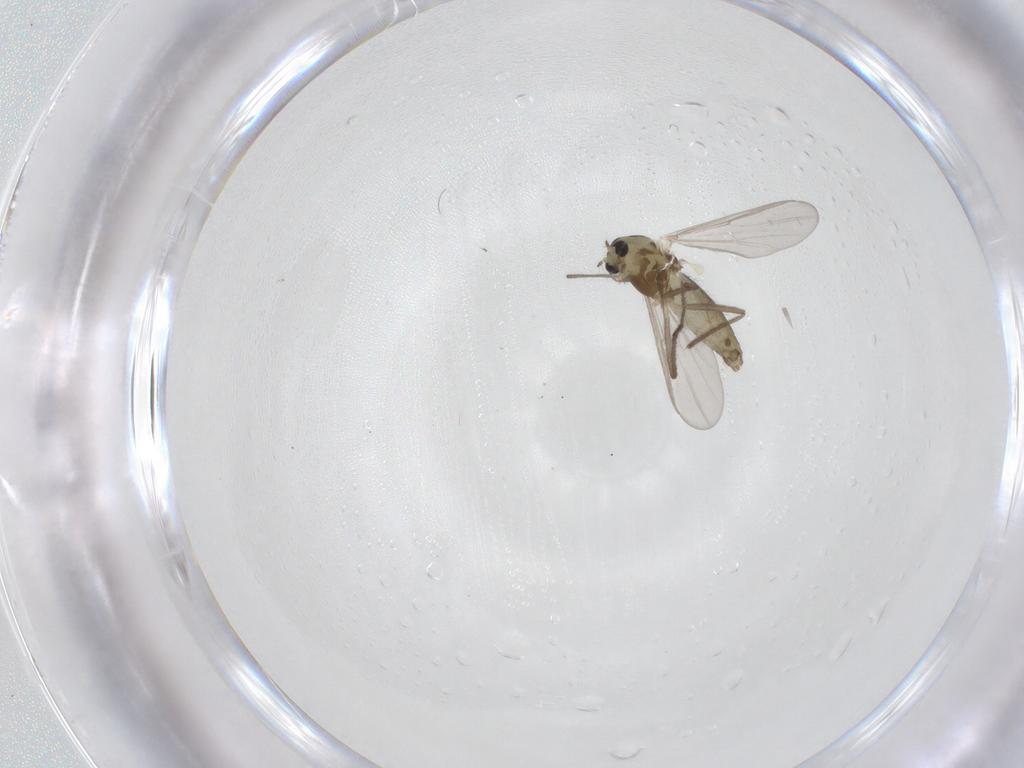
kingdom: Animalia
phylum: Arthropoda
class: Insecta
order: Diptera
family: Chironomidae
